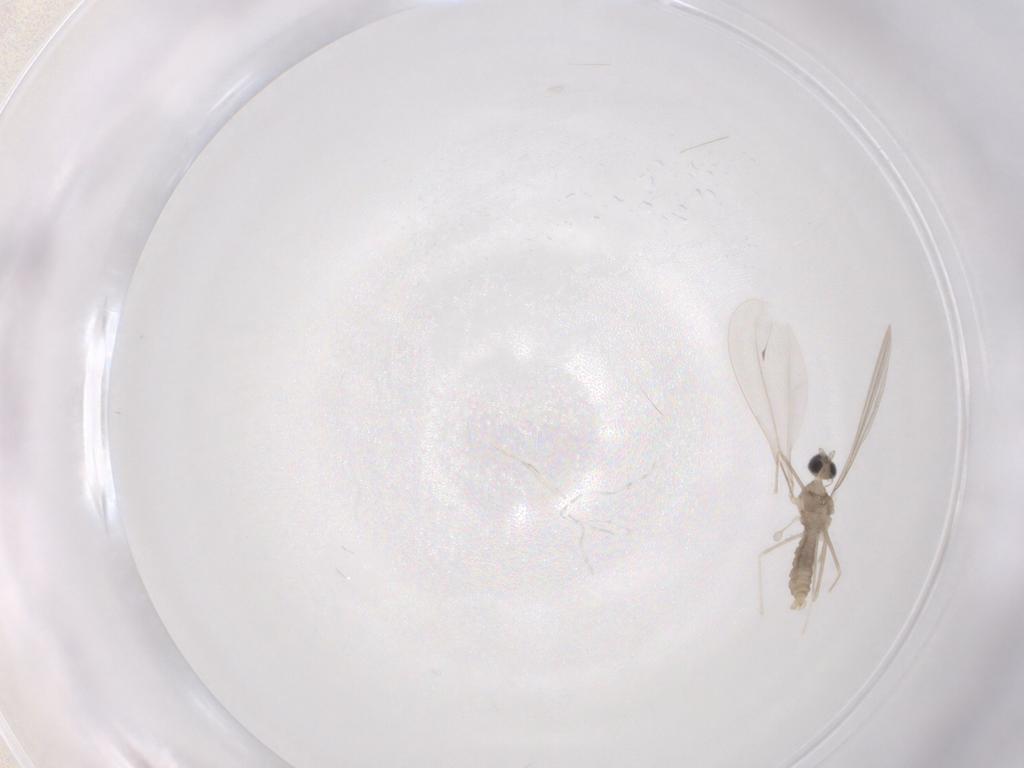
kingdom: Animalia
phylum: Arthropoda
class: Insecta
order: Diptera
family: Cecidomyiidae
